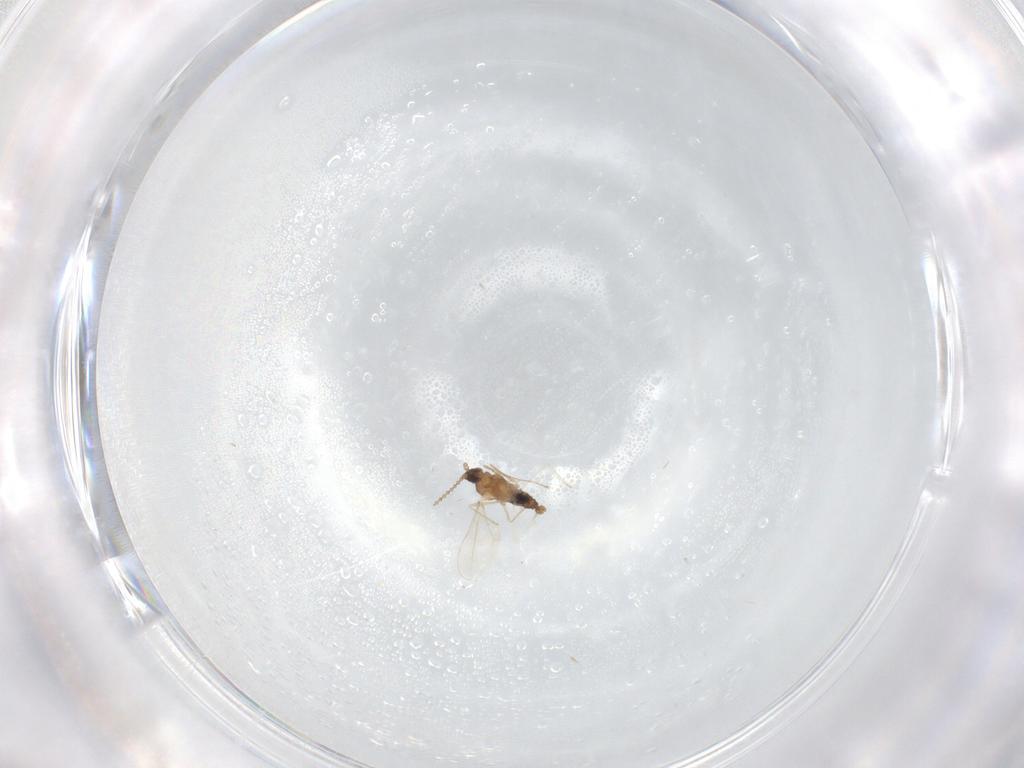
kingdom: Animalia
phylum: Arthropoda
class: Insecta
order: Diptera
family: Cecidomyiidae
